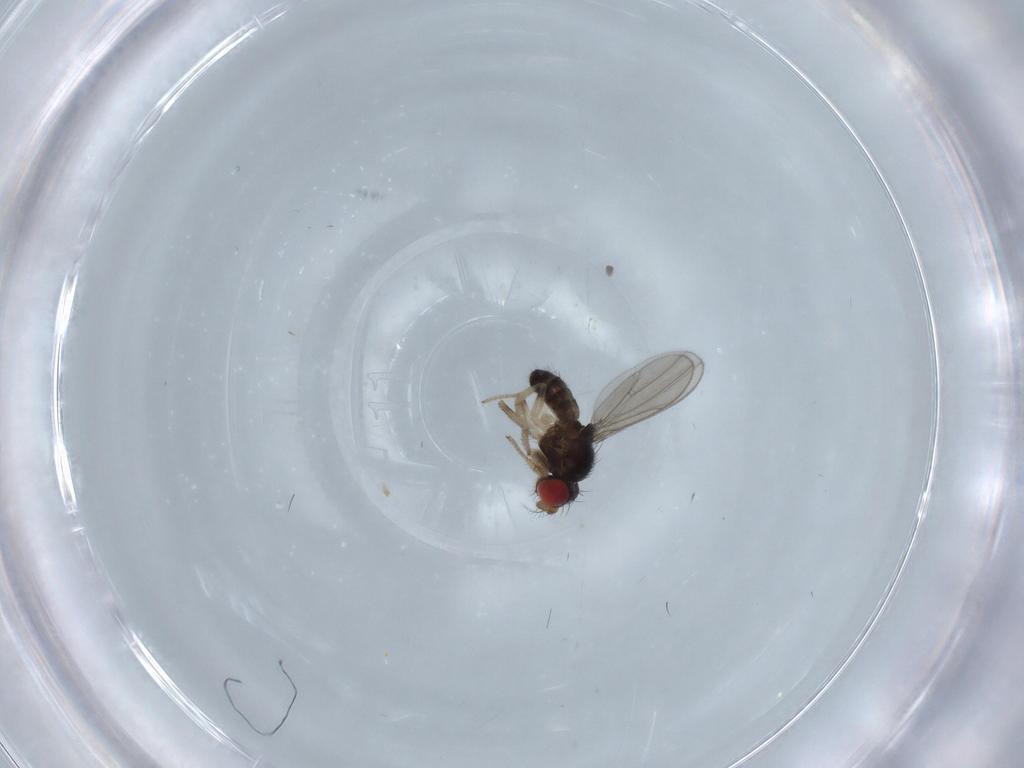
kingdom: Animalia
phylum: Arthropoda
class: Insecta
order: Diptera
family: Drosophilidae
